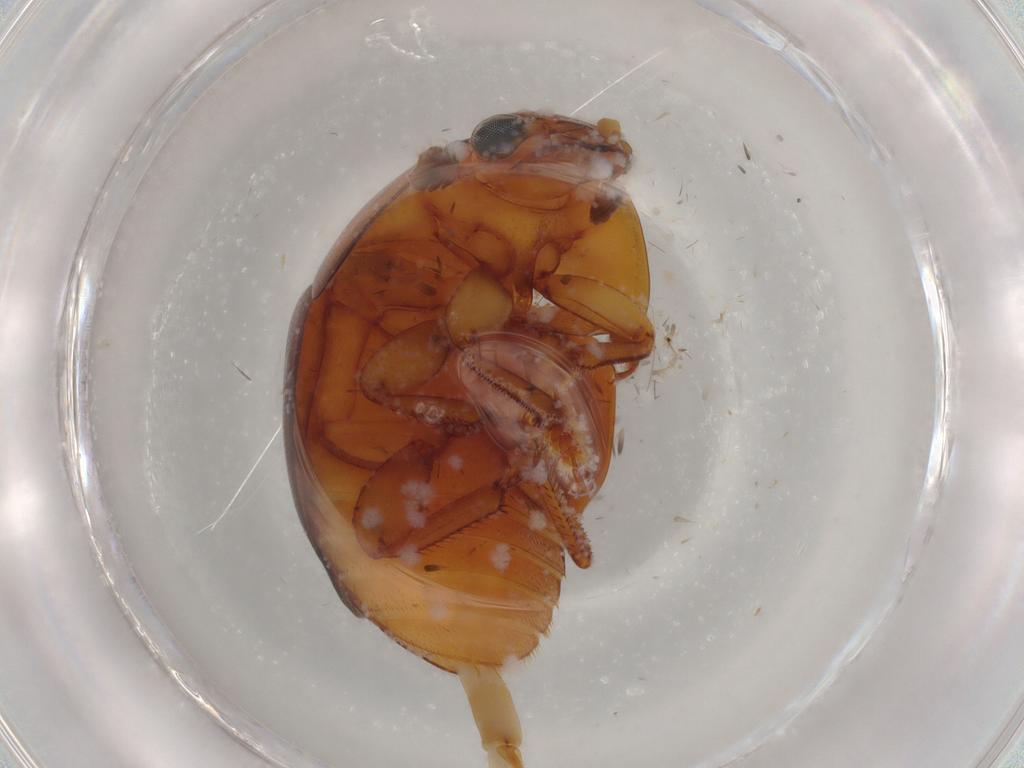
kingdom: Animalia
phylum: Arthropoda
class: Insecta
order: Coleoptera
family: Nitidulidae
